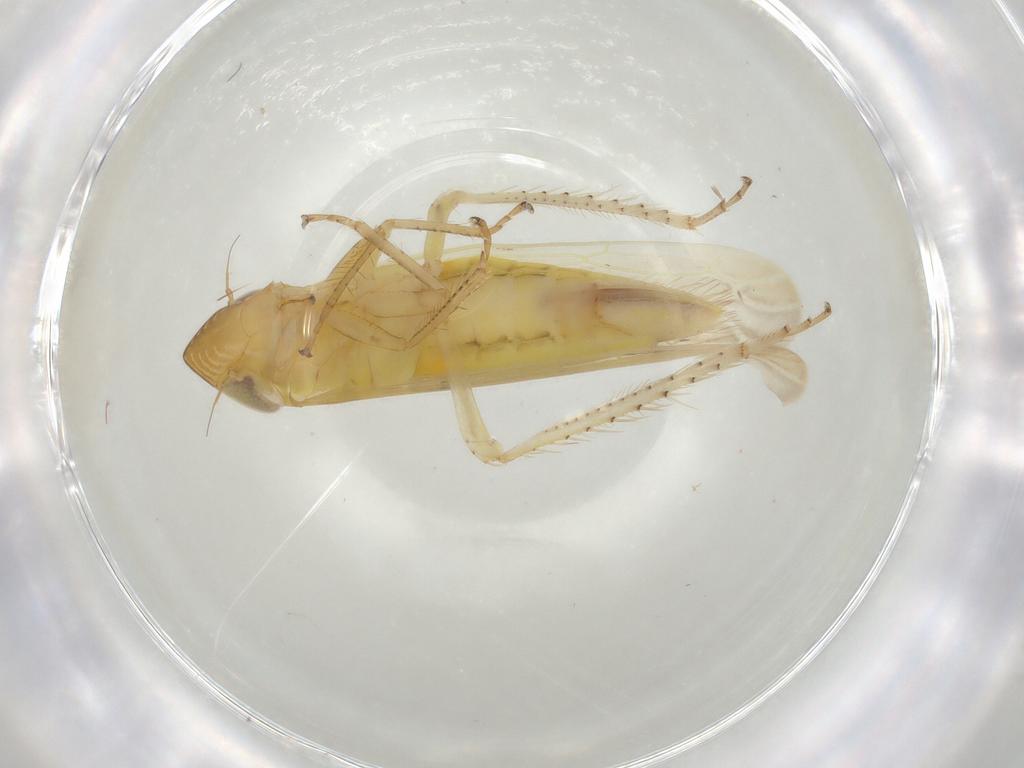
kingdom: Animalia
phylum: Arthropoda
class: Insecta
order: Hemiptera
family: Cicadellidae
